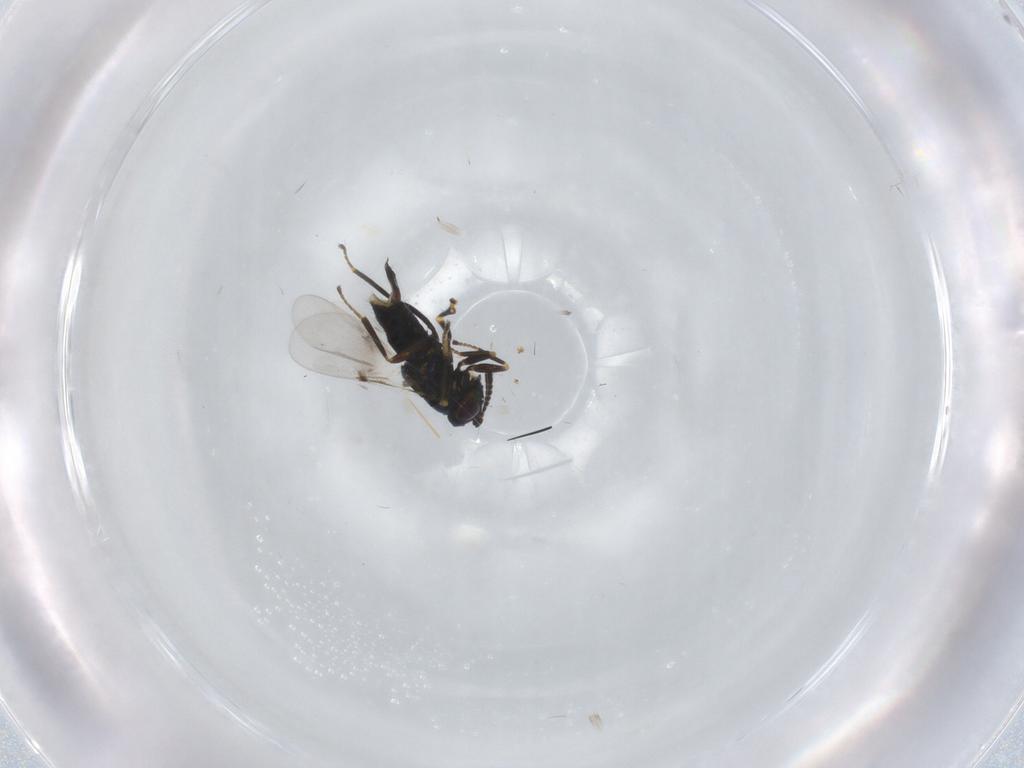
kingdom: Animalia
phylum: Arthropoda
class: Insecta
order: Hymenoptera
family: Encyrtidae
